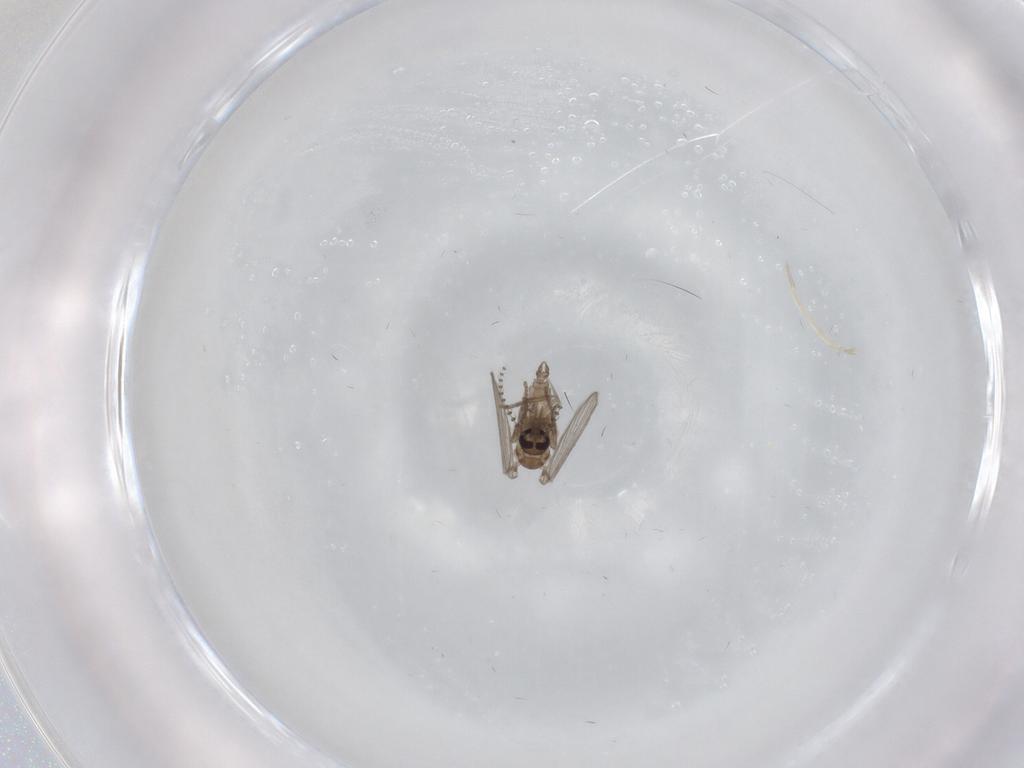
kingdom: Animalia
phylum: Arthropoda
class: Insecta
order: Diptera
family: Psychodidae
